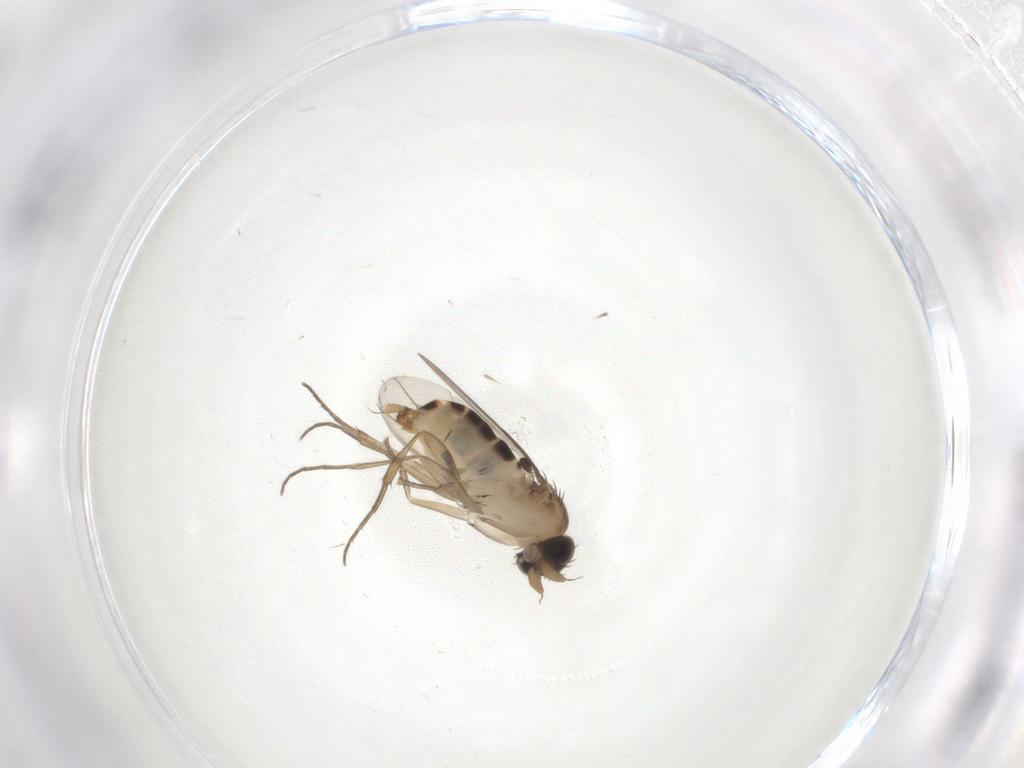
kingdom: Animalia
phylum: Arthropoda
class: Insecta
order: Diptera
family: Phoridae
